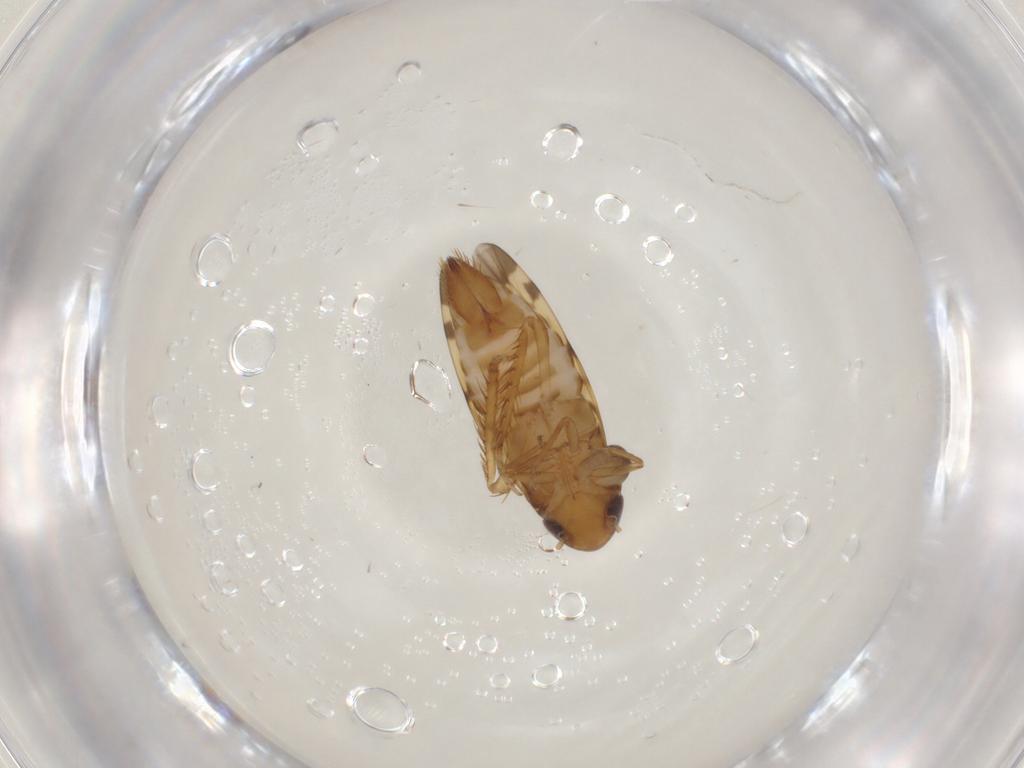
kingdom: Animalia
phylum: Arthropoda
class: Insecta
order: Hemiptera
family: Cicadellidae
